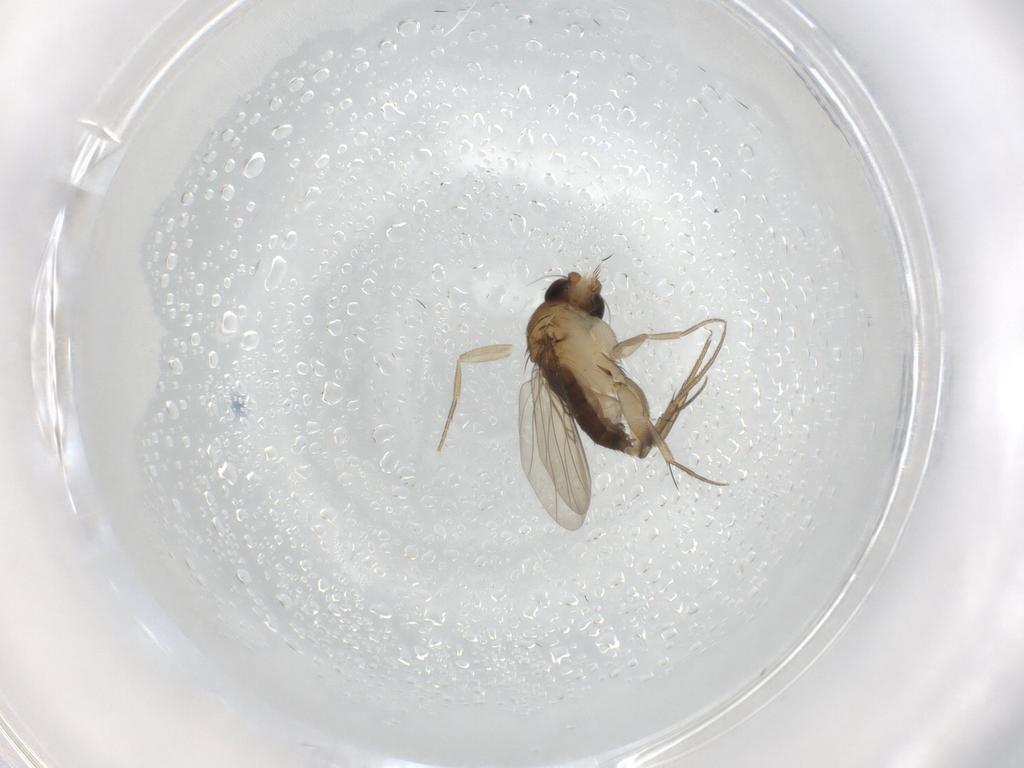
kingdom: Animalia
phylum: Arthropoda
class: Insecta
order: Diptera
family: Phoridae
